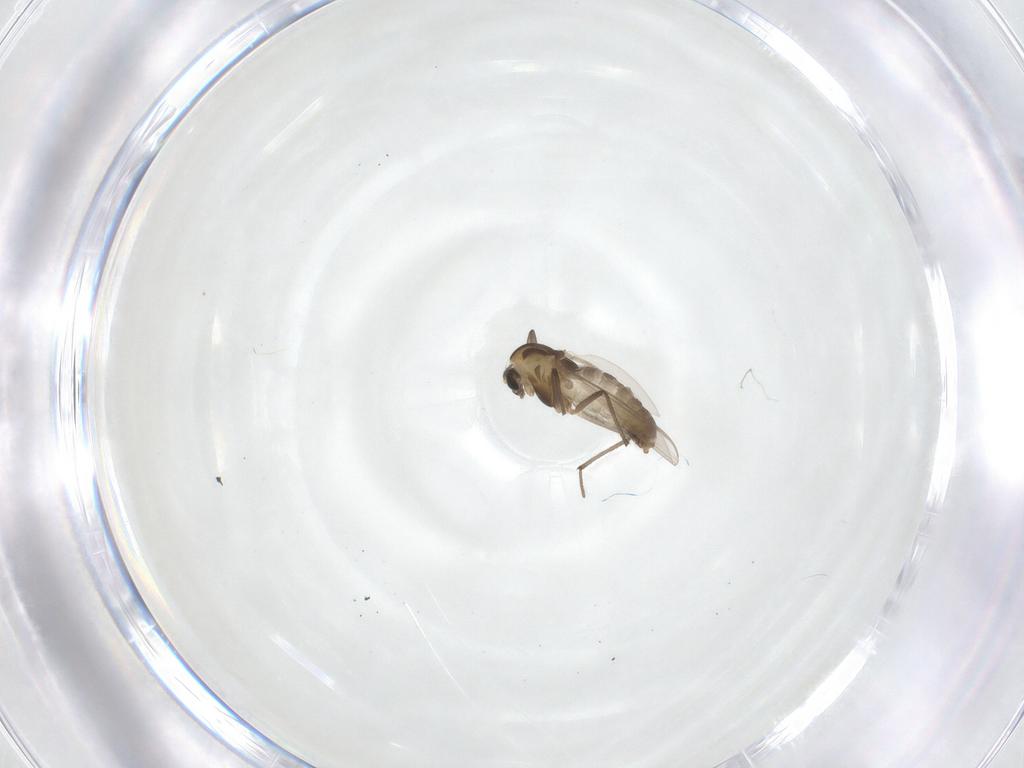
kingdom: Animalia
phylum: Arthropoda
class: Insecta
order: Diptera
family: Chironomidae
